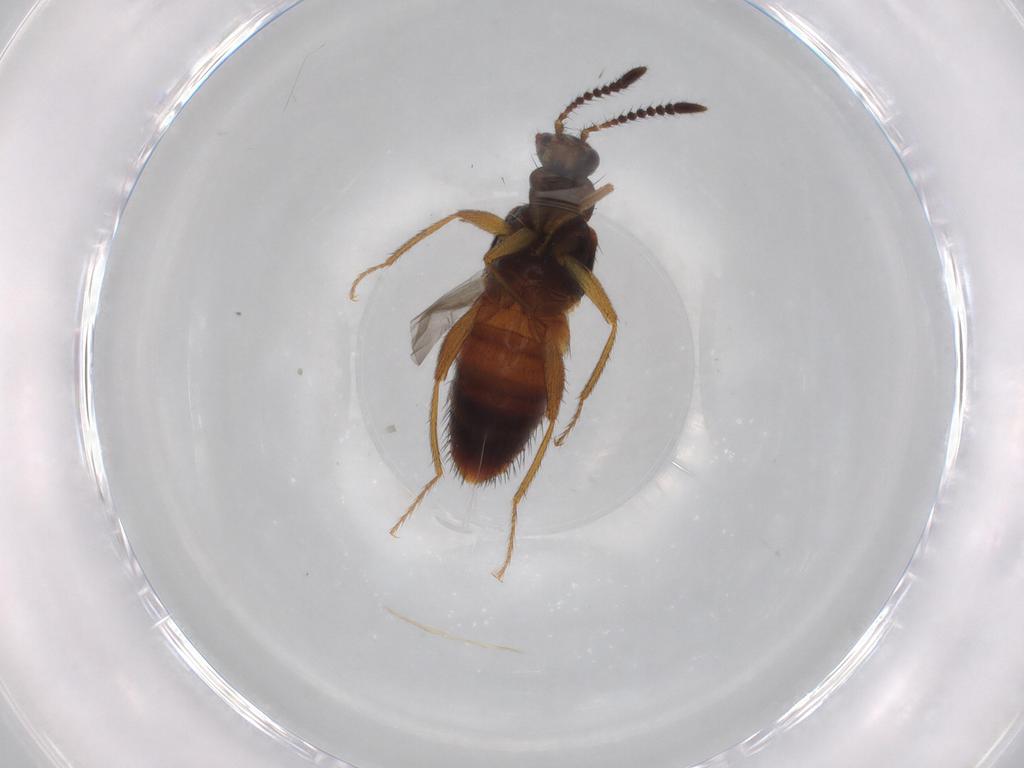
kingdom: Animalia
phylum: Arthropoda
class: Insecta
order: Coleoptera
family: Staphylinidae
